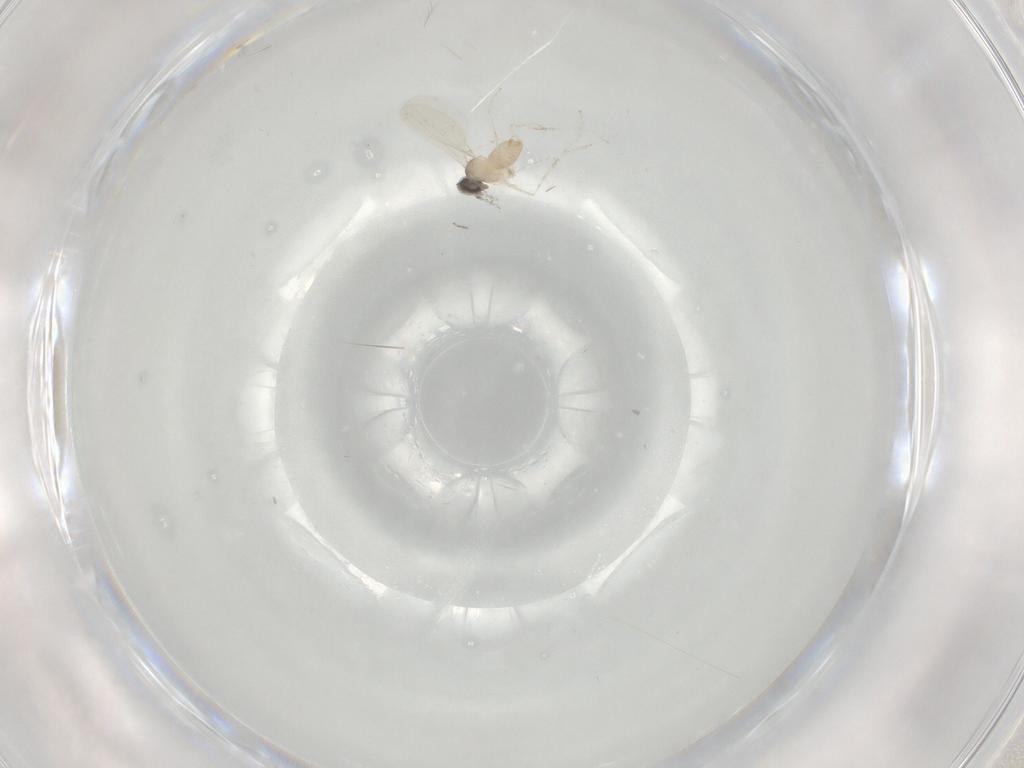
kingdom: Animalia
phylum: Arthropoda
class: Insecta
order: Diptera
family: Cecidomyiidae
